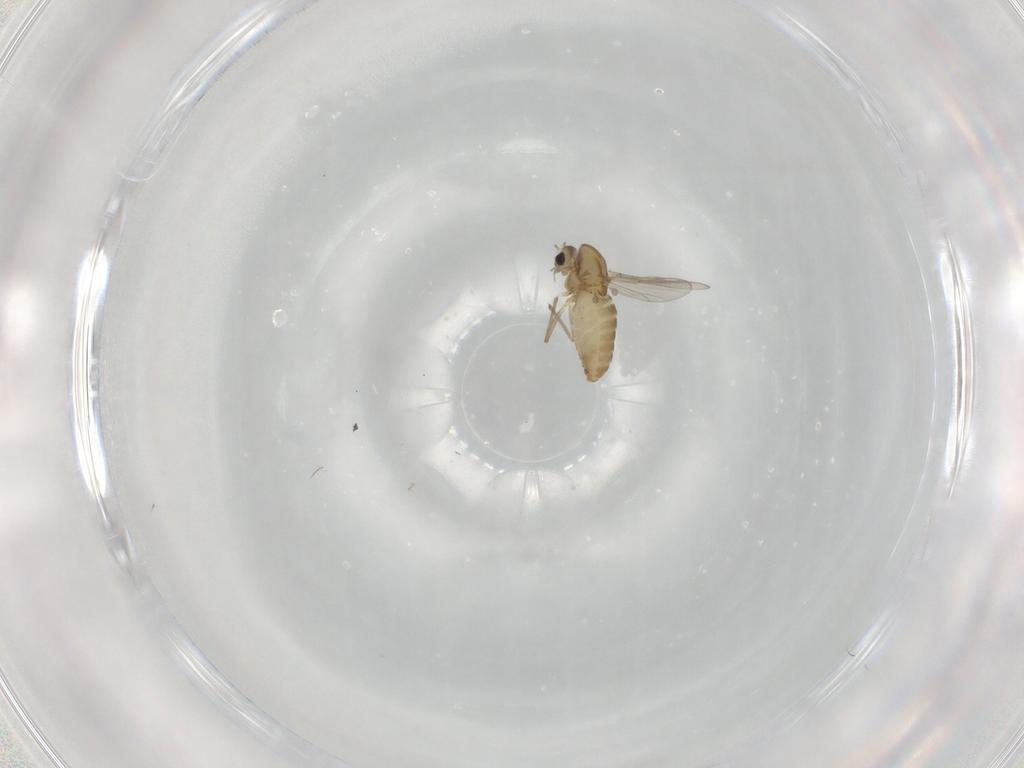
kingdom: Animalia
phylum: Arthropoda
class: Insecta
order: Diptera
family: Chironomidae
